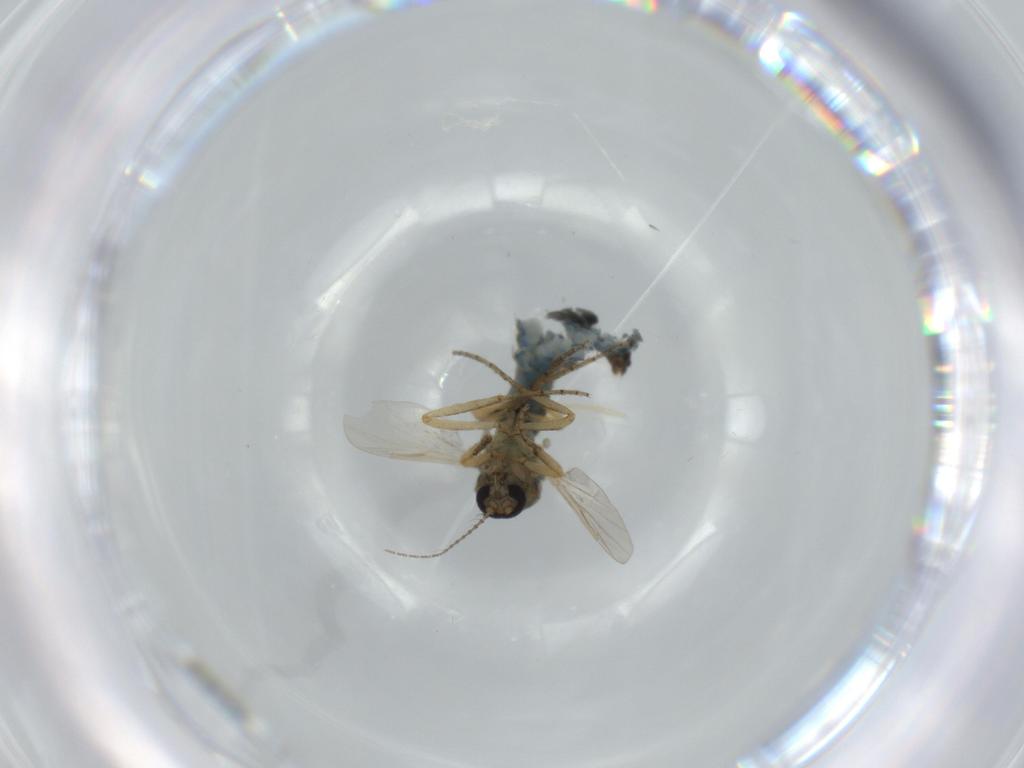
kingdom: Animalia
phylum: Arthropoda
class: Insecta
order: Diptera
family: Ceratopogonidae
